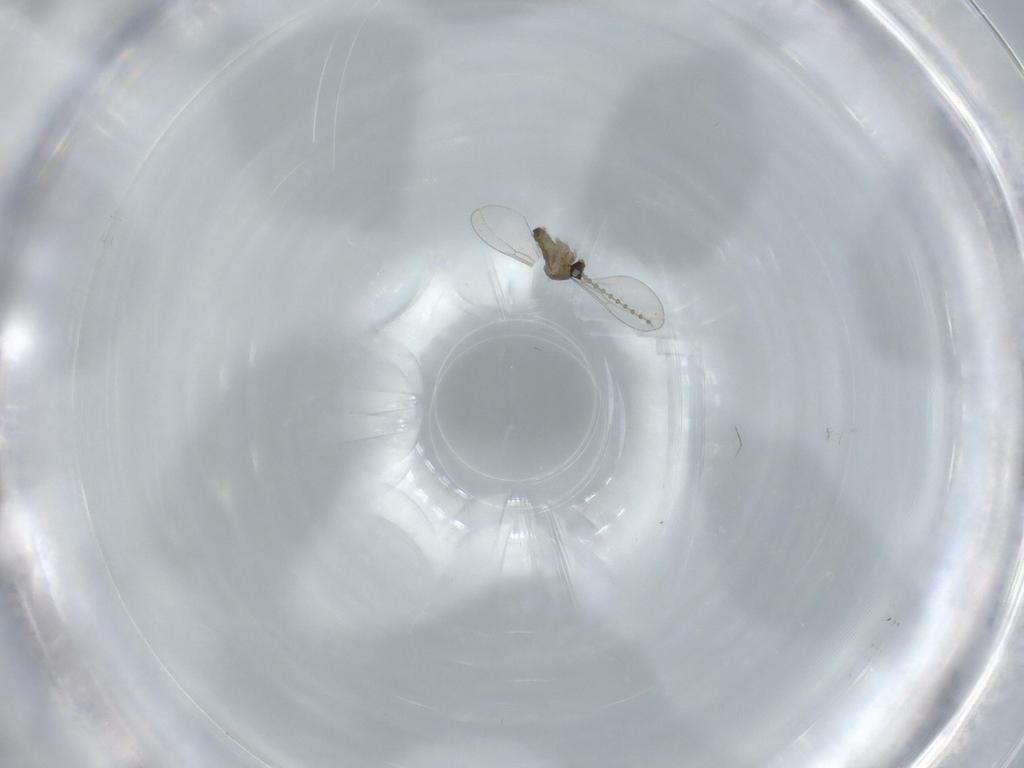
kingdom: Animalia
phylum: Arthropoda
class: Insecta
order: Diptera
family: Cecidomyiidae
